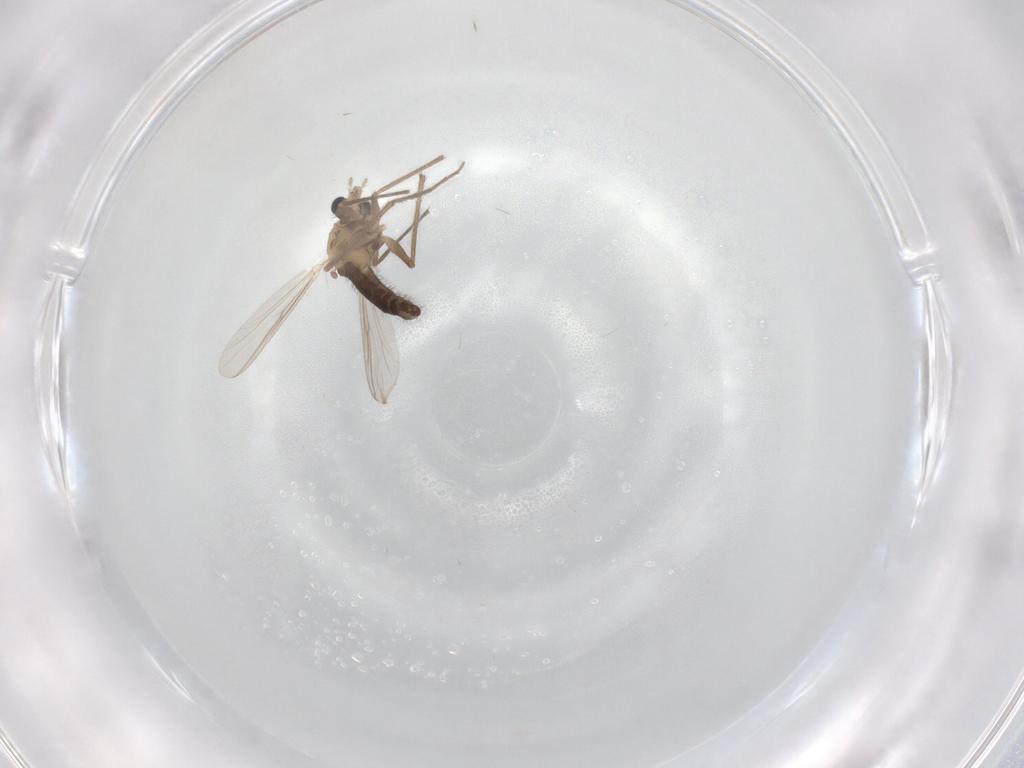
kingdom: Animalia
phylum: Arthropoda
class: Insecta
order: Diptera
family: Chironomidae
